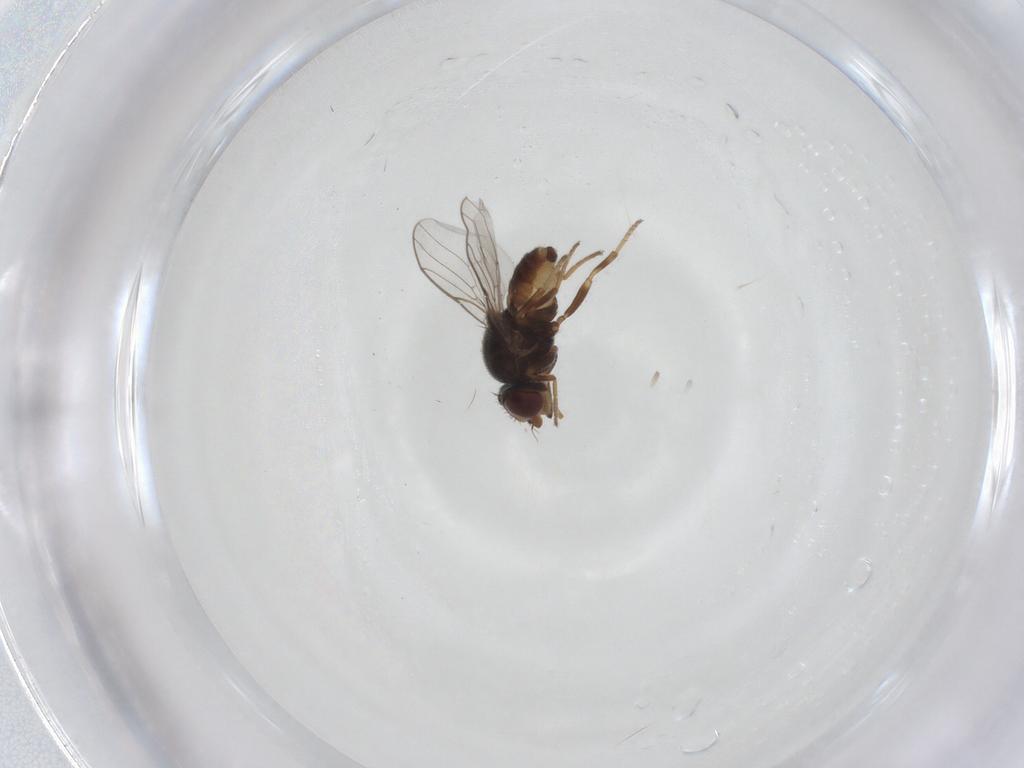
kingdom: Animalia
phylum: Arthropoda
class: Insecta
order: Diptera
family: Chloropidae
